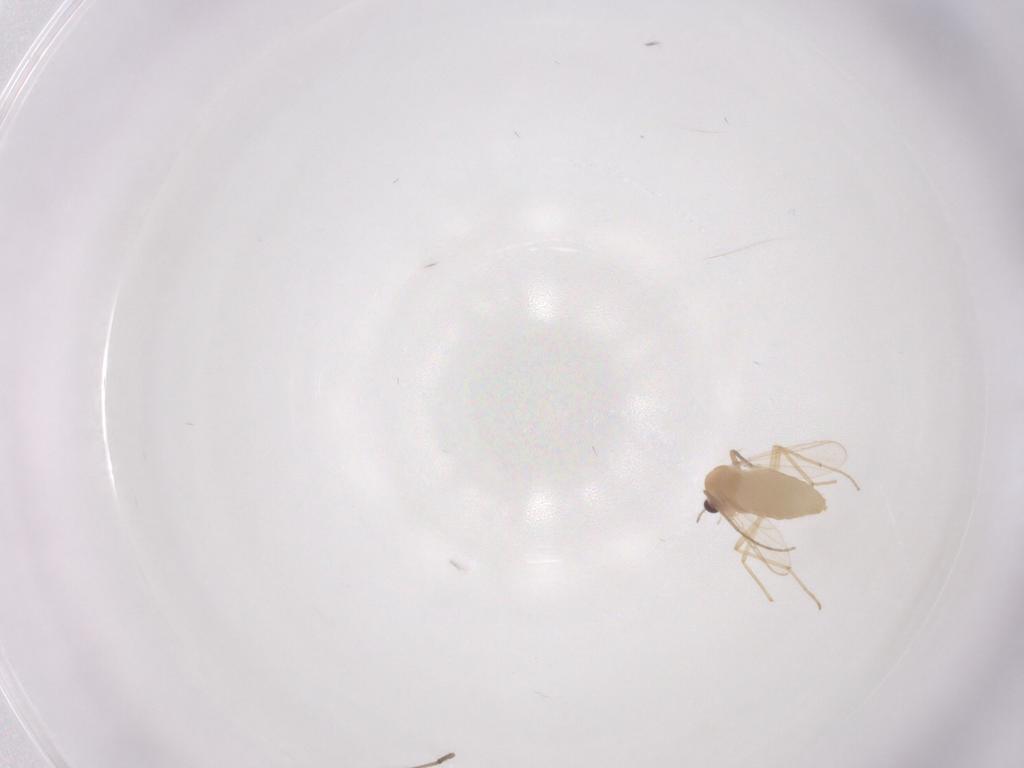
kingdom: Animalia
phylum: Arthropoda
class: Insecta
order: Diptera
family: Chironomidae
